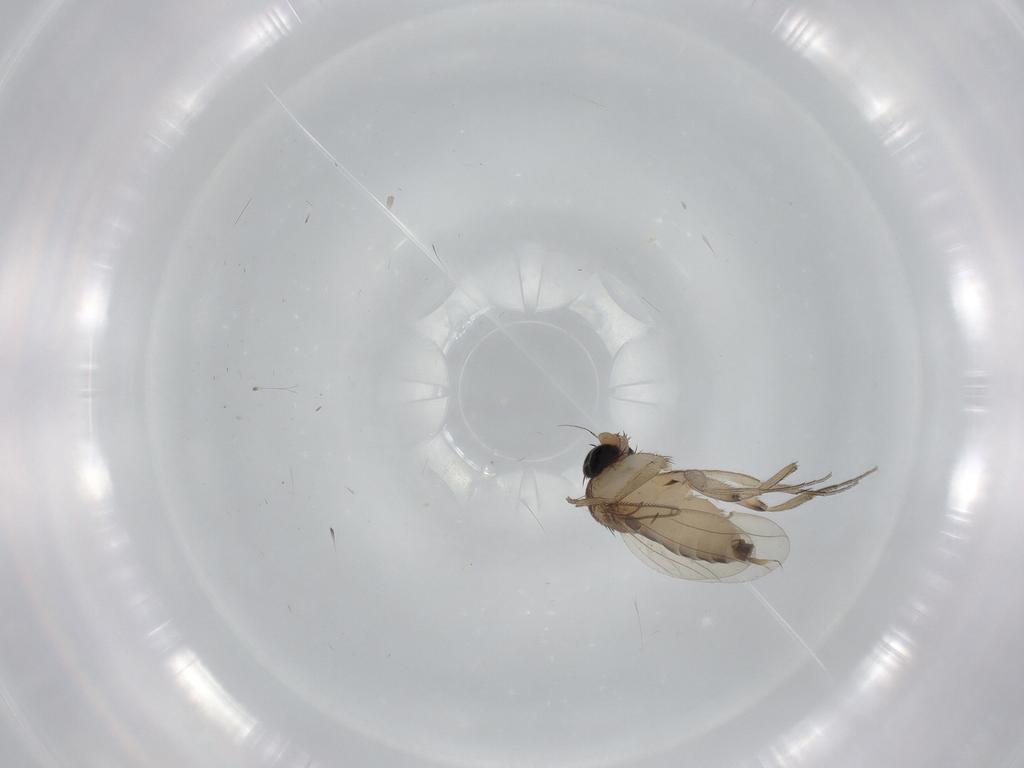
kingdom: Animalia
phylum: Arthropoda
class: Insecta
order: Diptera
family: Phoridae
